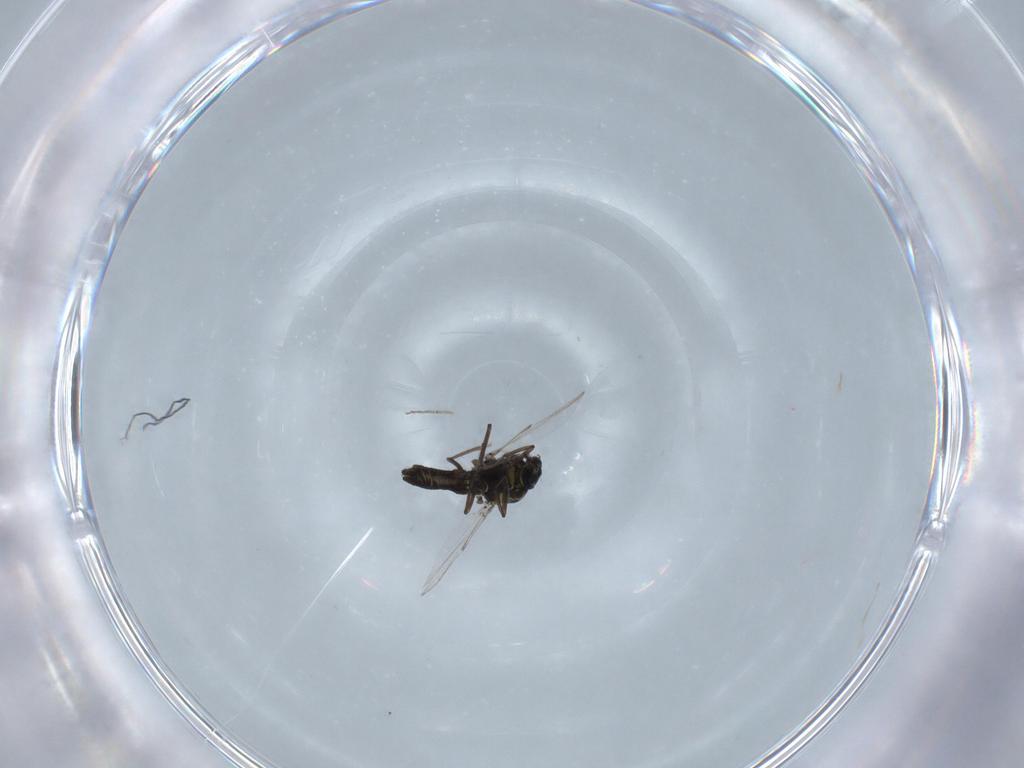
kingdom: Animalia
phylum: Arthropoda
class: Insecta
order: Diptera
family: Ceratopogonidae
